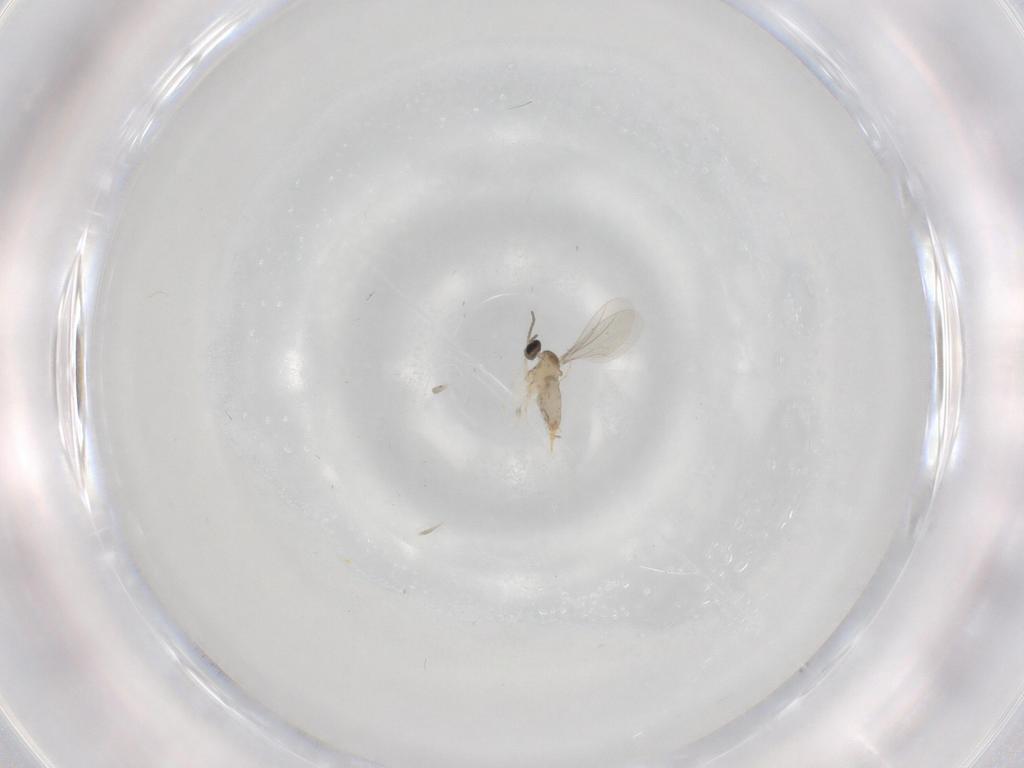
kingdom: Animalia
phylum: Arthropoda
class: Insecta
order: Diptera
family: Cecidomyiidae
